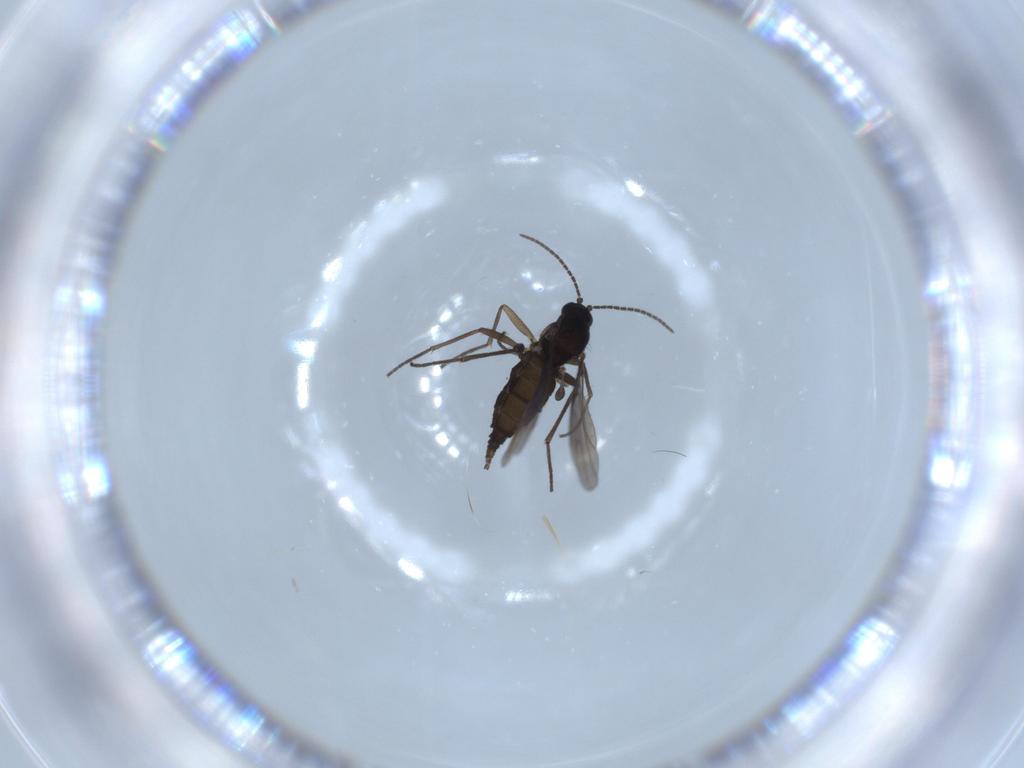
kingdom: Animalia
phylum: Arthropoda
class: Insecta
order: Diptera
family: Sciaridae
